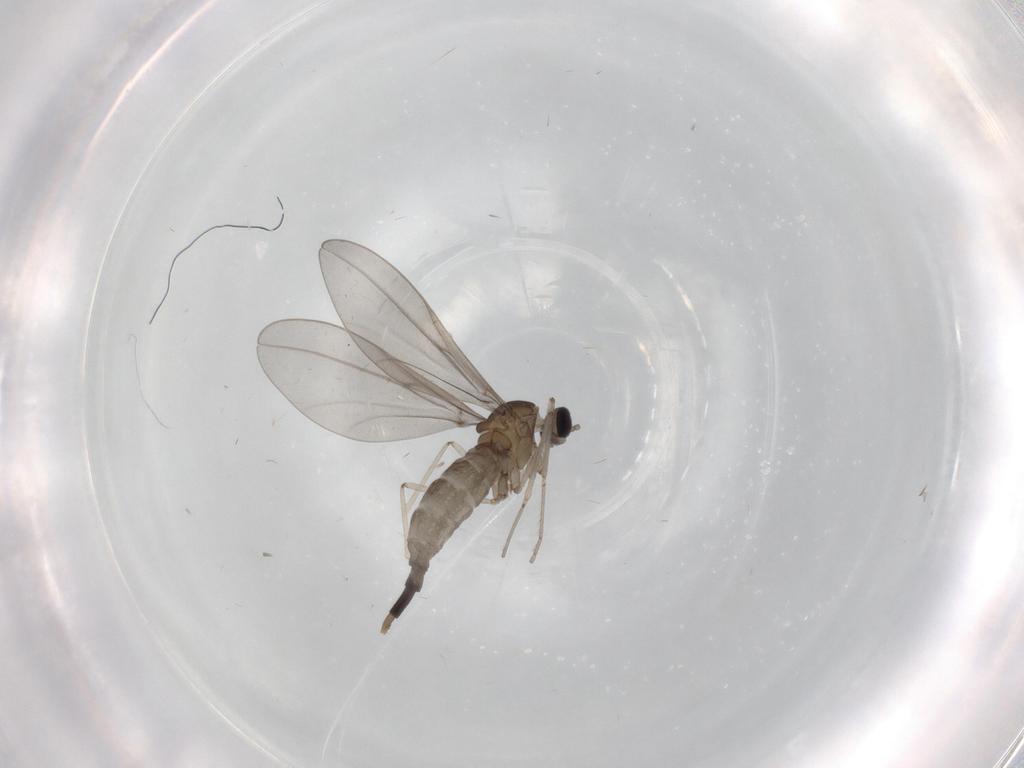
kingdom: Animalia
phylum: Arthropoda
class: Insecta
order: Diptera
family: Cecidomyiidae
